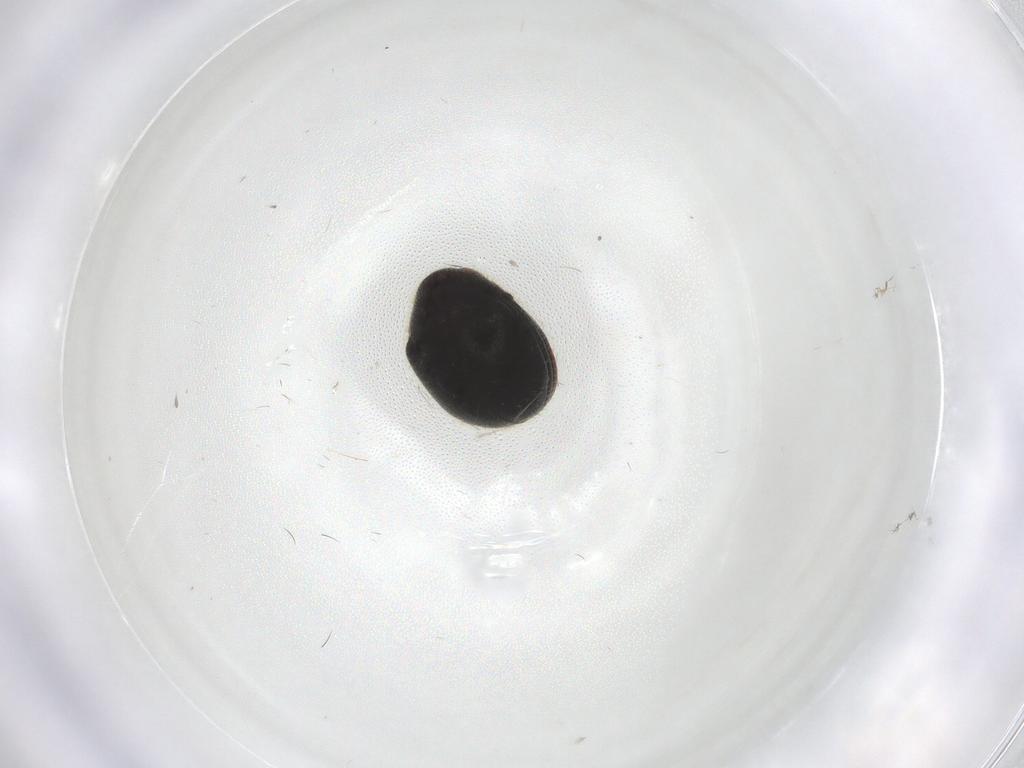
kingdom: Animalia
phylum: Arthropoda
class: Insecta
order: Coleoptera
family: Ptinidae
